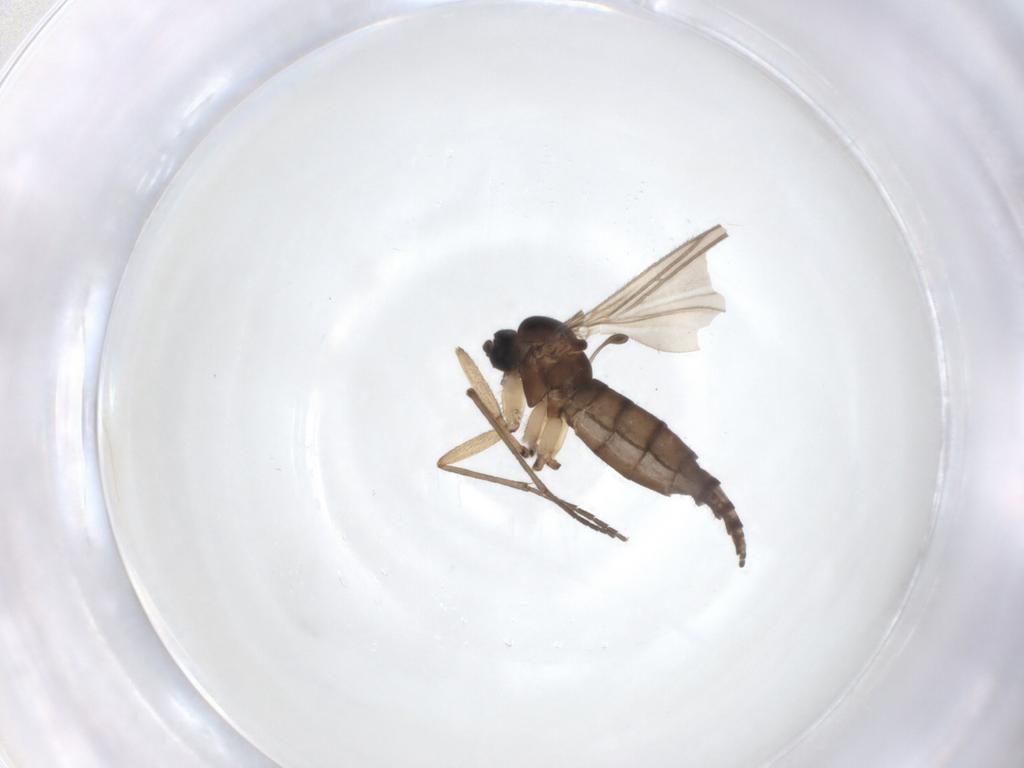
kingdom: Animalia
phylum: Arthropoda
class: Insecta
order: Diptera
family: Sciaridae
